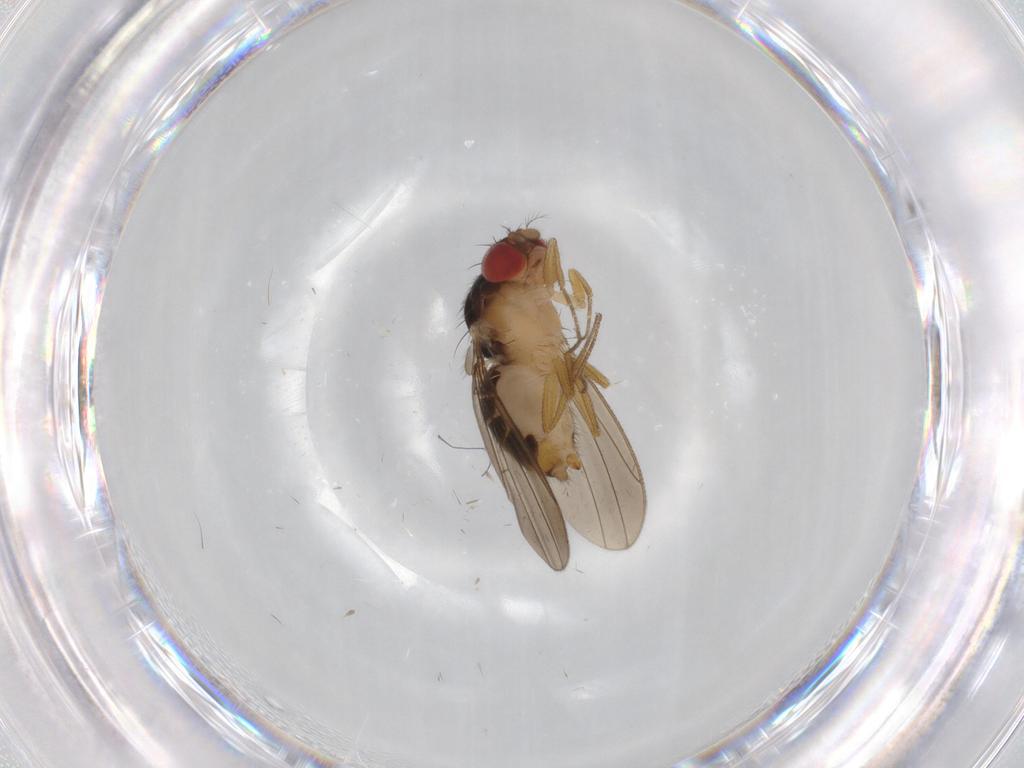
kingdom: Animalia
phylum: Arthropoda
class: Insecta
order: Diptera
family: Drosophilidae
